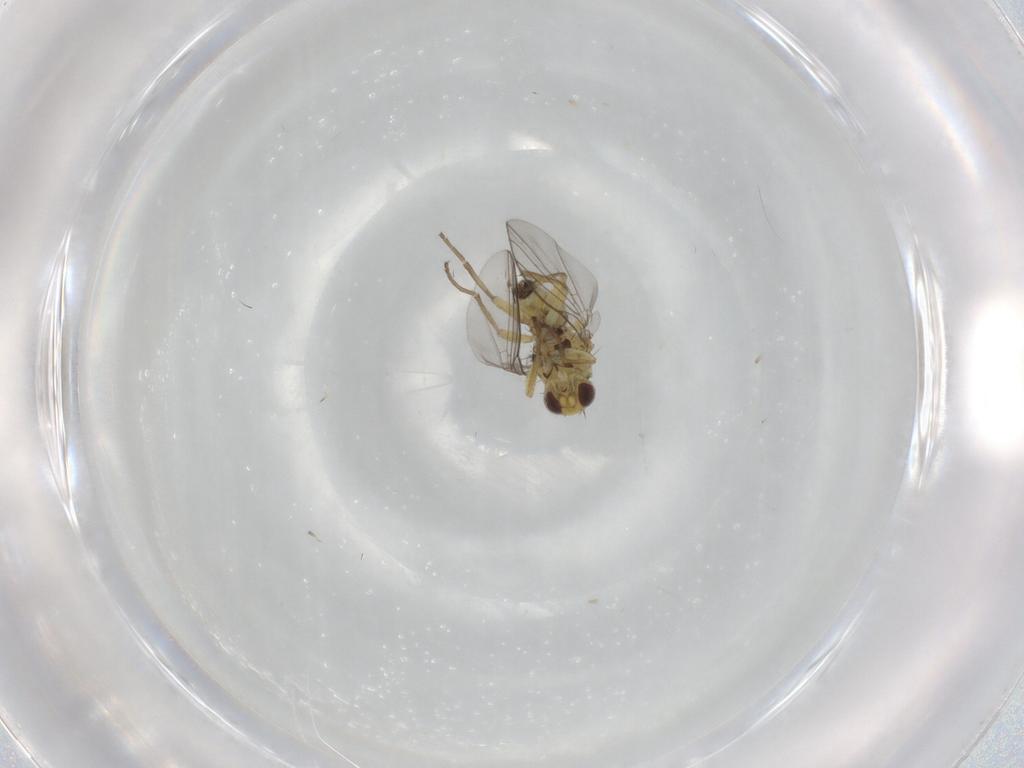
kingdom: Animalia
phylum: Arthropoda
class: Insecta
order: Diptera
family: Agromyzidae
